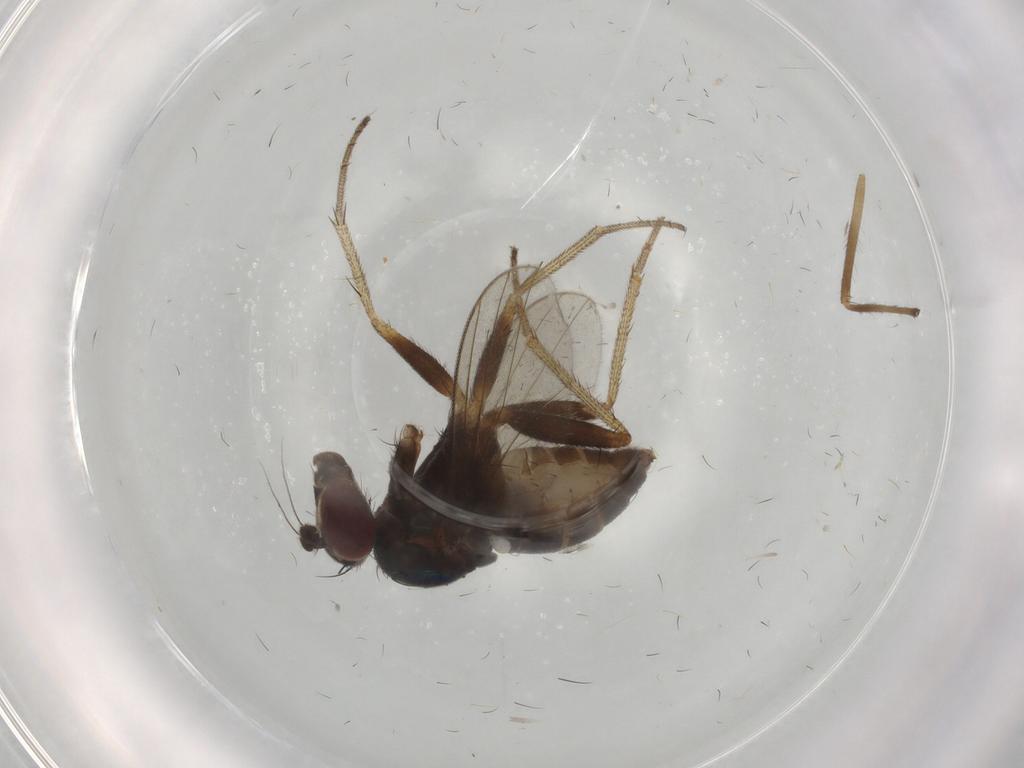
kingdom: Animalia
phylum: Arthropoda
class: Insecta
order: Diptera
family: Dolichopodidae
